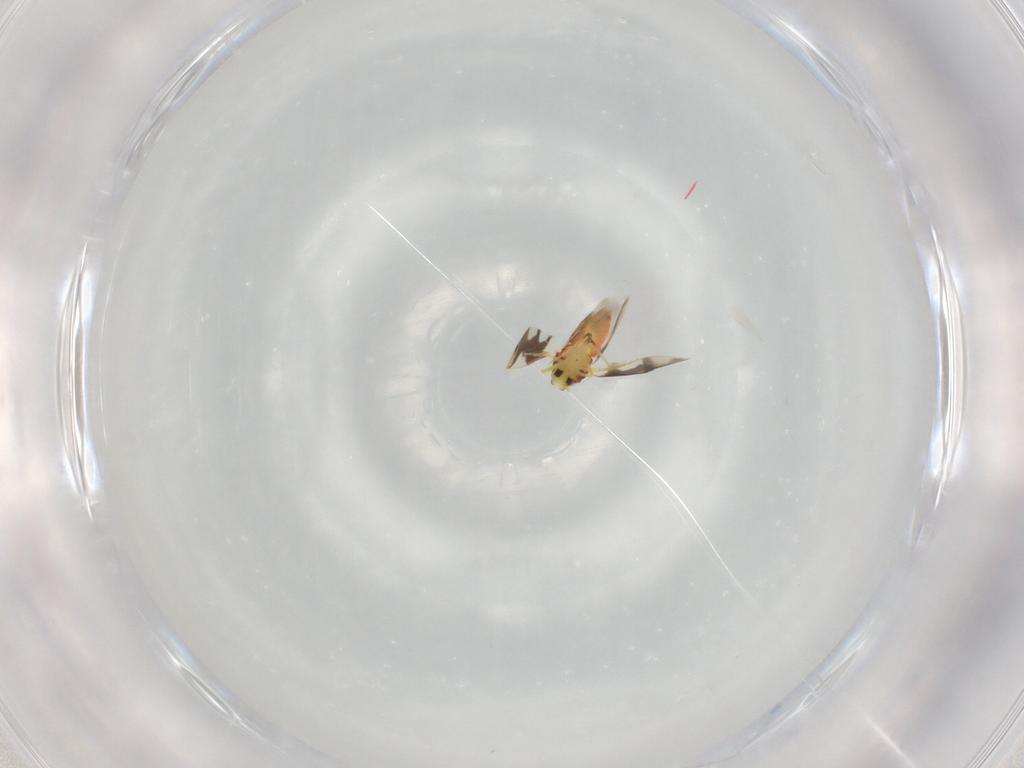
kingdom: Animalia
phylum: Arthropoda
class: Insecta
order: Hemiptera
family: Aleyrodidae
